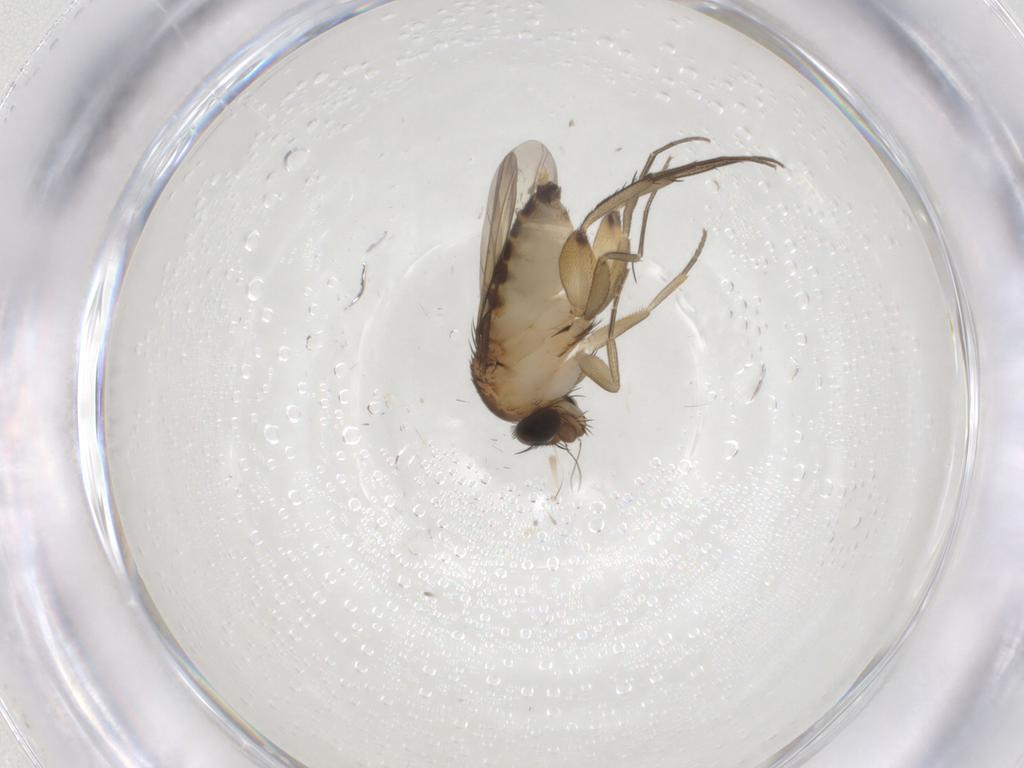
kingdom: Animalia
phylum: Arthropoda
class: Insecta
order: Diptera
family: Phoridae
